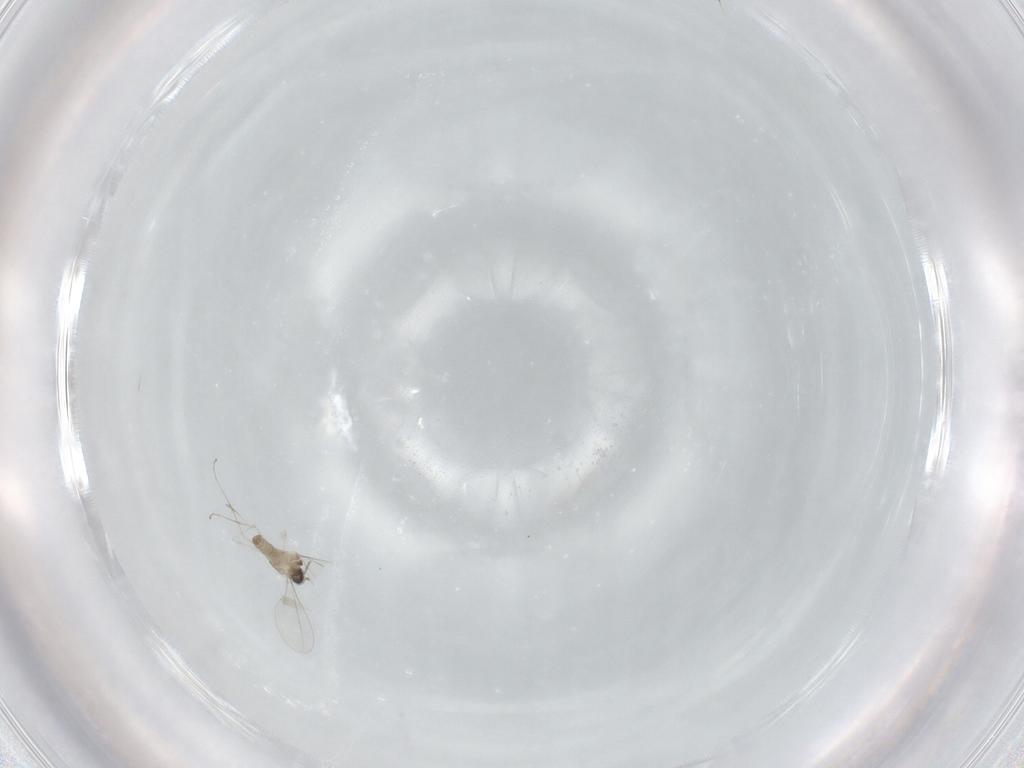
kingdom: Animalia
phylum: Arthropoda
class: Insecta
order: Diptera
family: Cecidomyiidae
